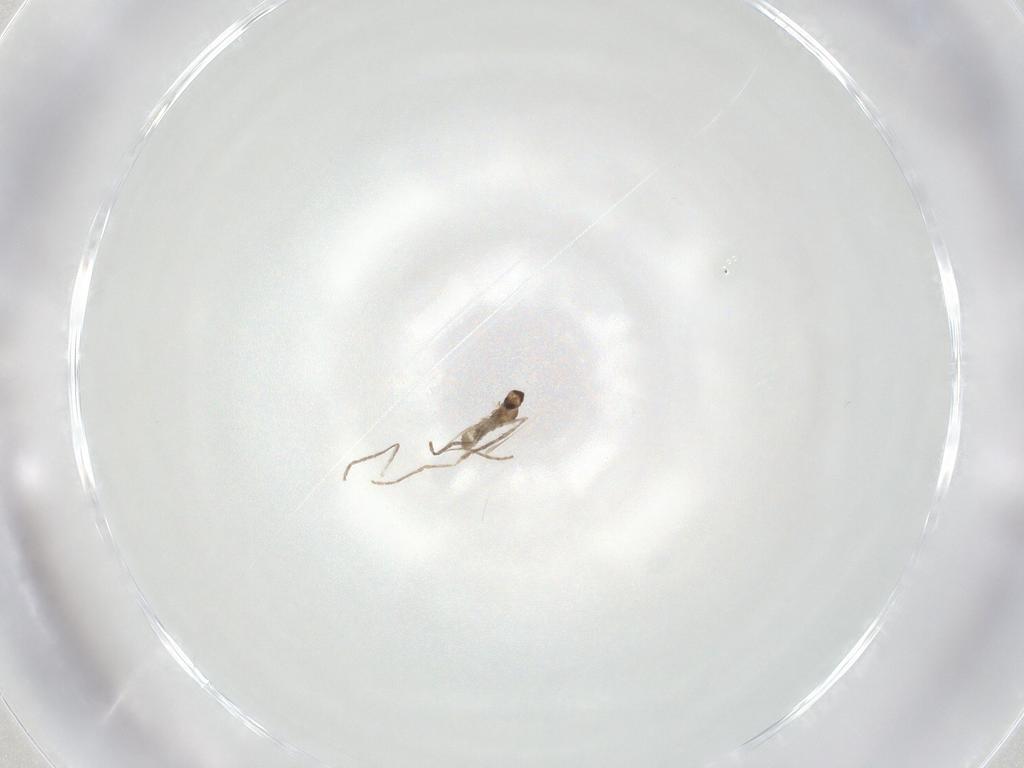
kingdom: Animalia
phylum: Arthropoda
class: Insecta
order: Diptera
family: Cecidomyiidae
